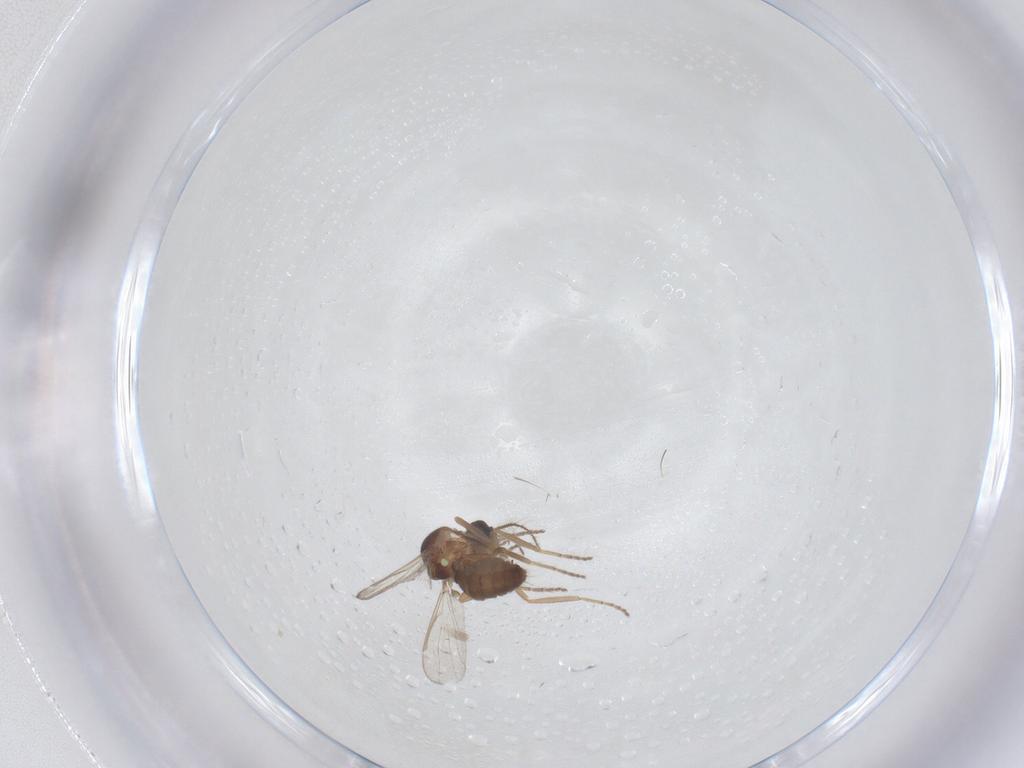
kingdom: Animalia
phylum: Arthropoda
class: Insecta
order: Diptera
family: Ceratopogonidae
